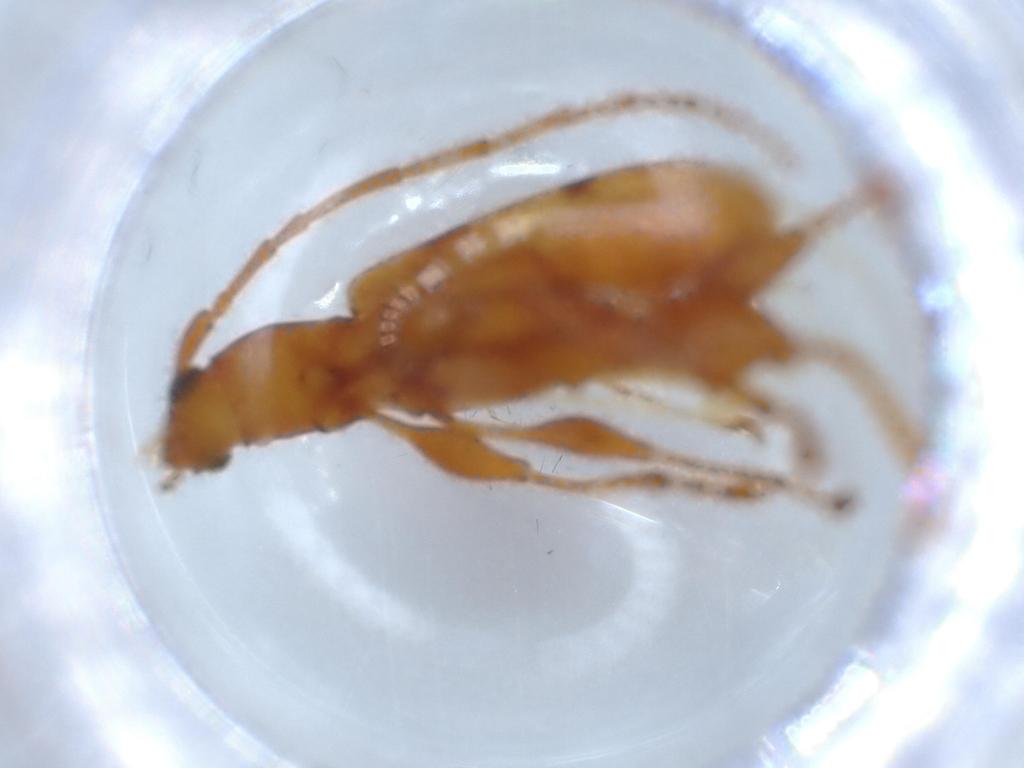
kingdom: Animalia
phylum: Arthropoda
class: Insecta
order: Coleoptera
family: Cerambycidae
